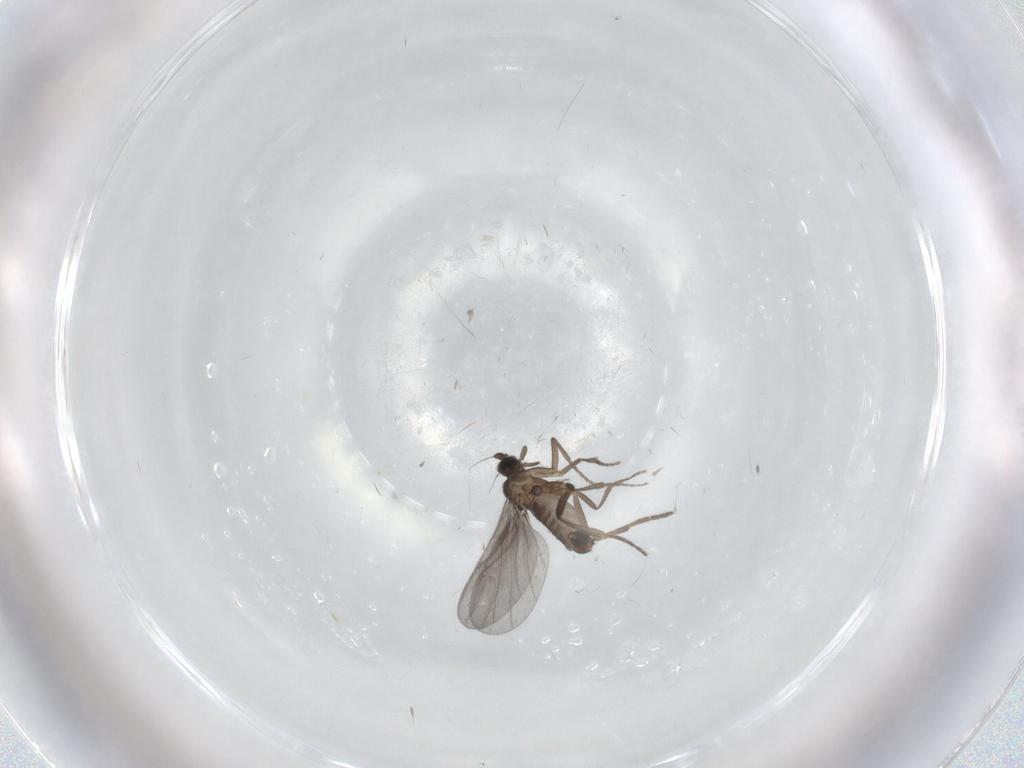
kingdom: Animalia
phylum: Arthropoda
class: Insecta
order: Diptera
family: Phoridae
